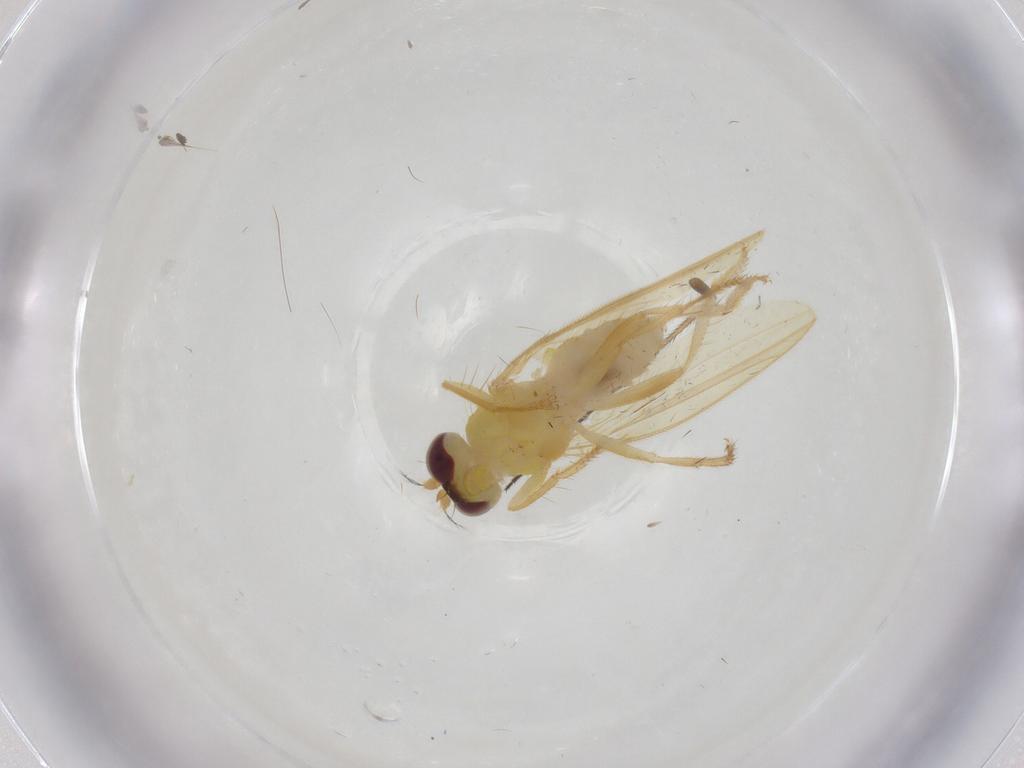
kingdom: Animalia
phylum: Arthropoda
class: Insecta
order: Diptera
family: Periscelididae
